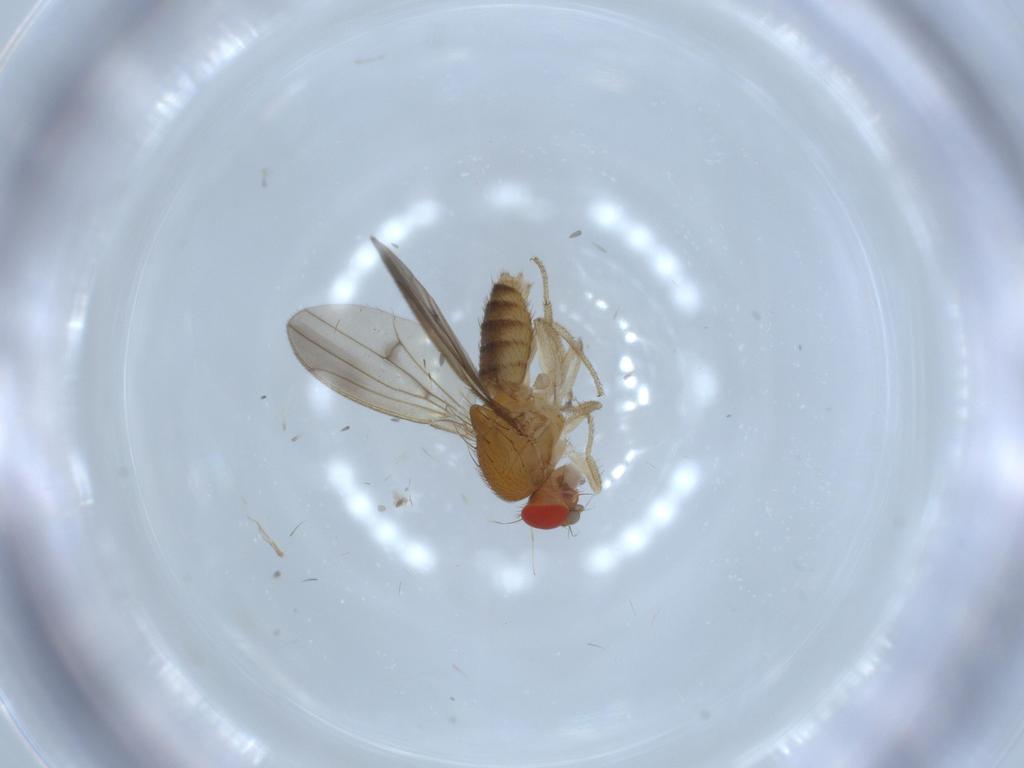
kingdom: Animalia
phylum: Arthropoda
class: Insecta
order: Diptera
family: Drosophilidae
